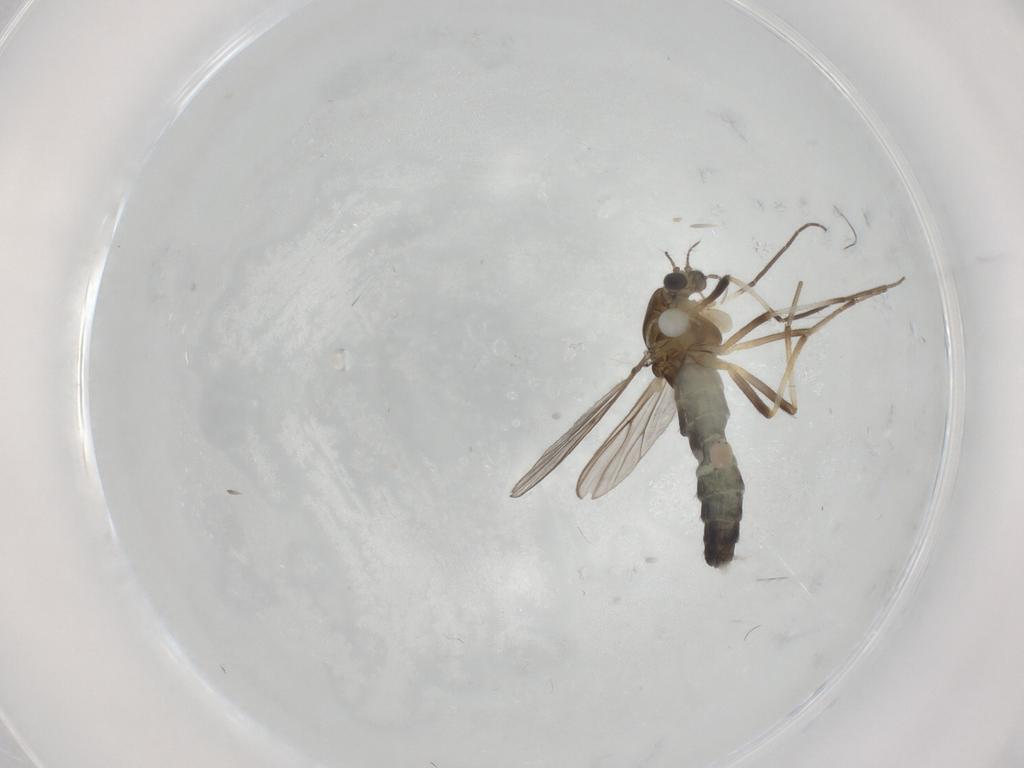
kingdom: Animalia
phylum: Arthropoda
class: Insecta
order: Diptera
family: Chironomidae
